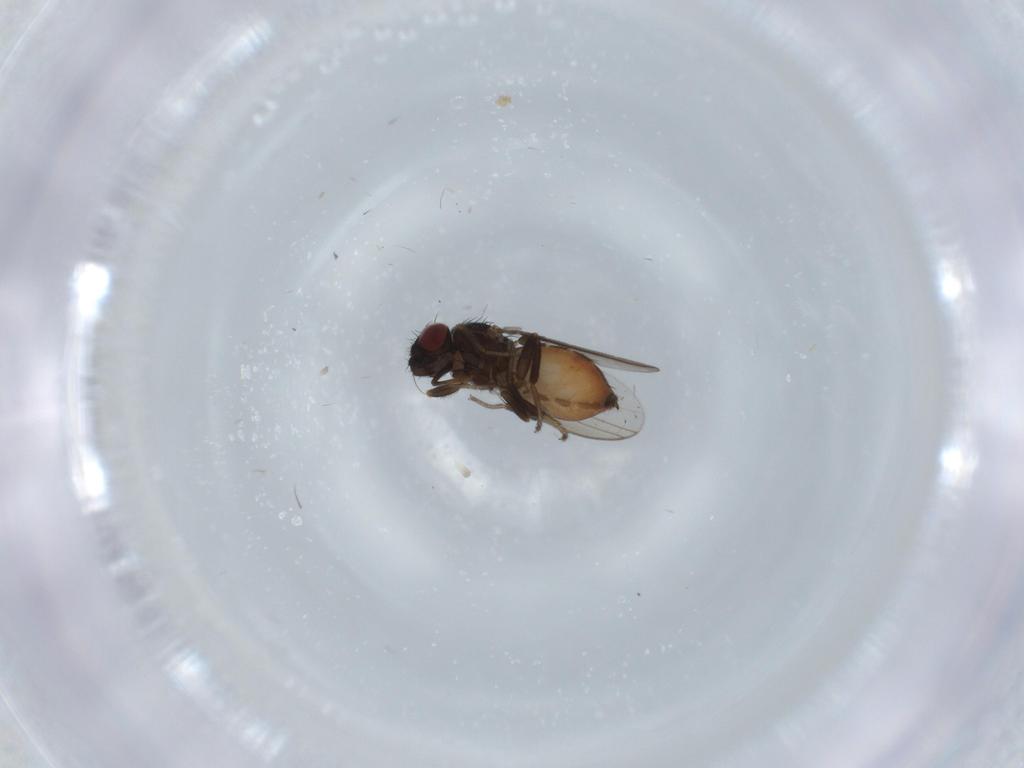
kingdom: Animalia
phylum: Arthropoda
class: Insecta
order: Diptera
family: Milichiidae
